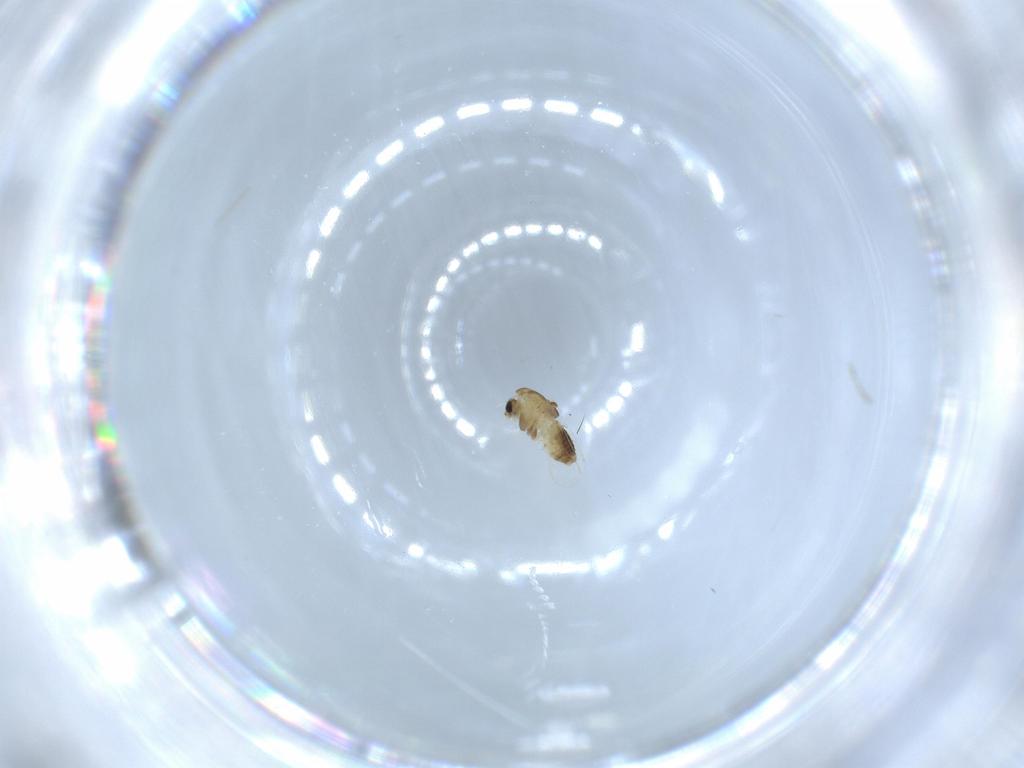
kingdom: Animalia
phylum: Arthropoda
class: Insecta
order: Diptera
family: Chironomidae
